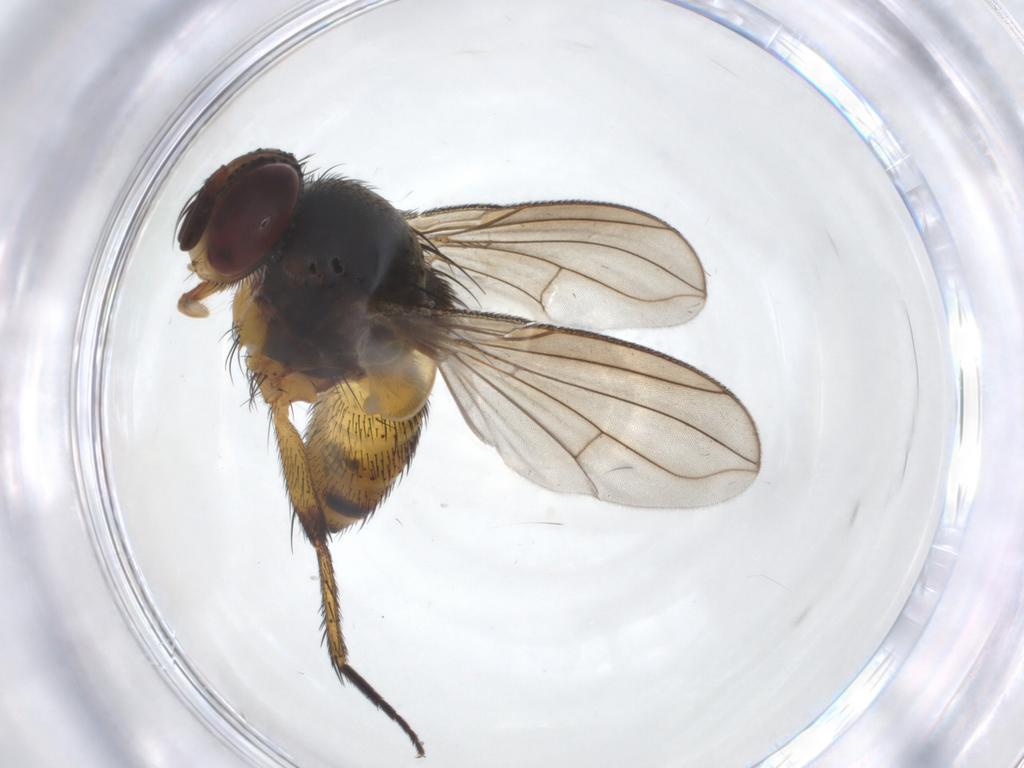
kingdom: Animalia
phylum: Arthropoda
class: Insecta
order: Diptera
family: Tachinidae
